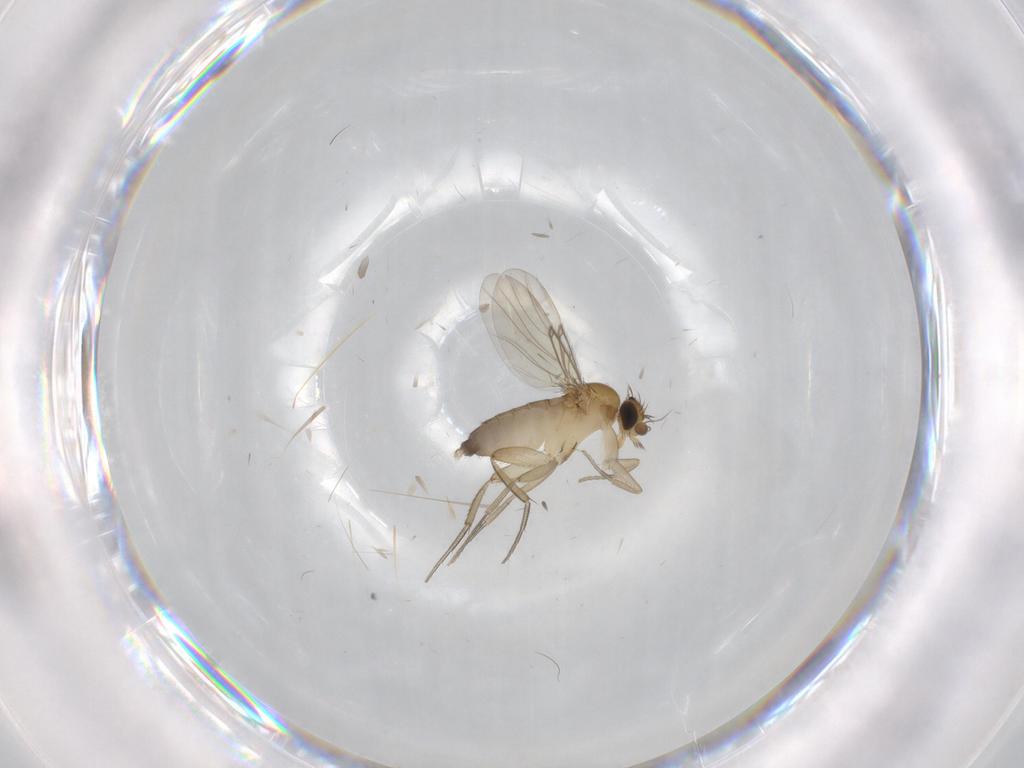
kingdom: Animalia
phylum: Arthropoda
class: Insecta
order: Diptera
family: Phoridae
